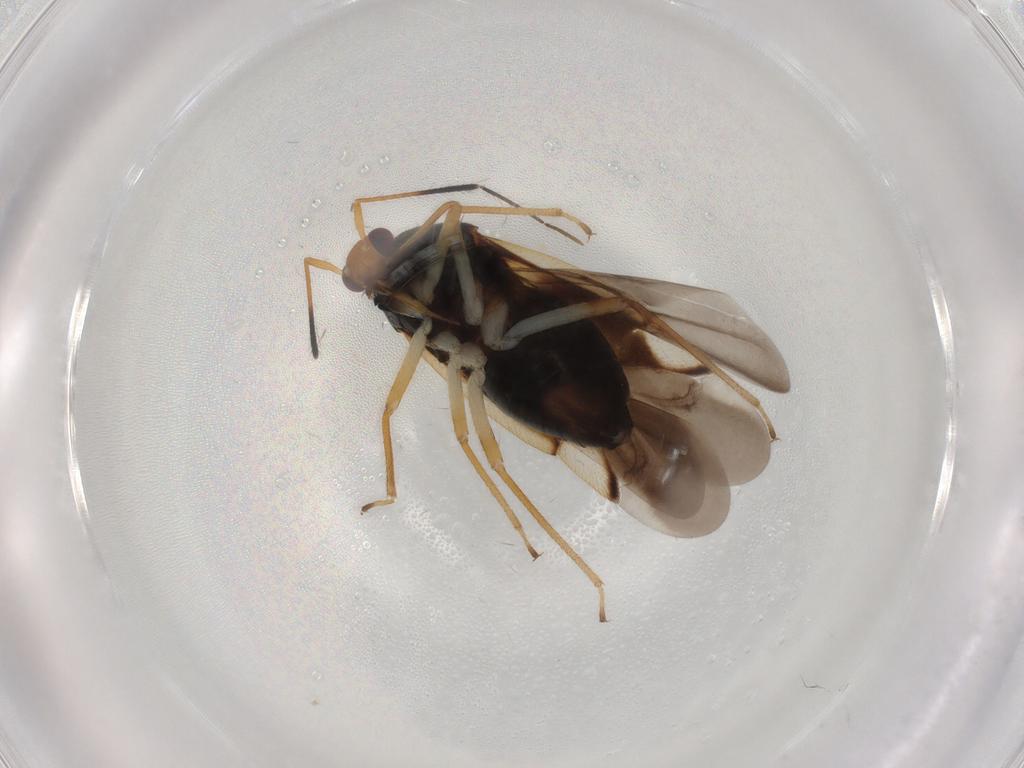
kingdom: Animalia
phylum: Arthropoda
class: Insecta
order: Hemiptera
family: Miridae
